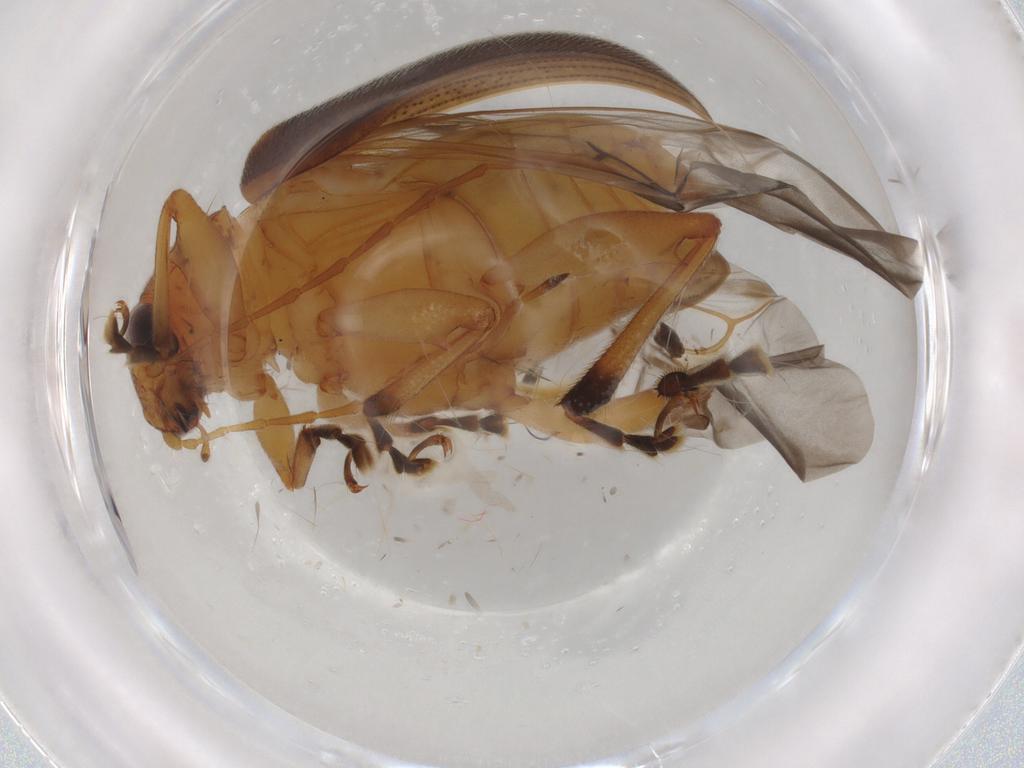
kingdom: Animalia
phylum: Arthropoda
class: Insecta
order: Coleoptera
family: Chrysomelidae
